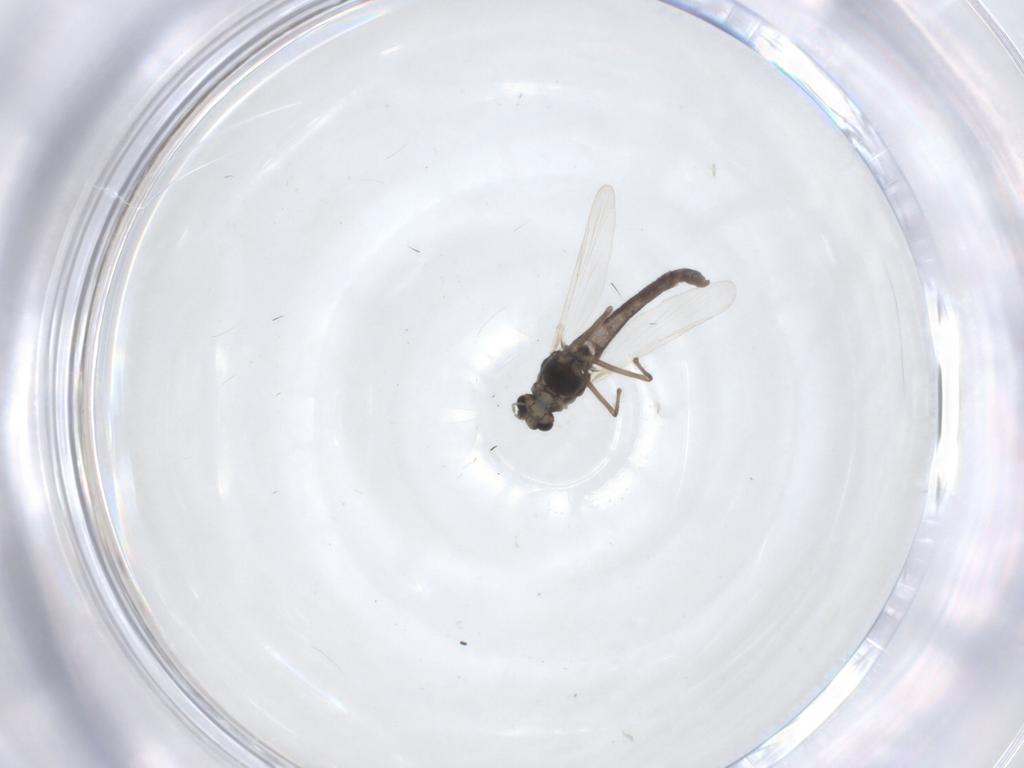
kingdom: Animalia
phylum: Arthropoda
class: Insecta
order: Diptera
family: Chironomidae
